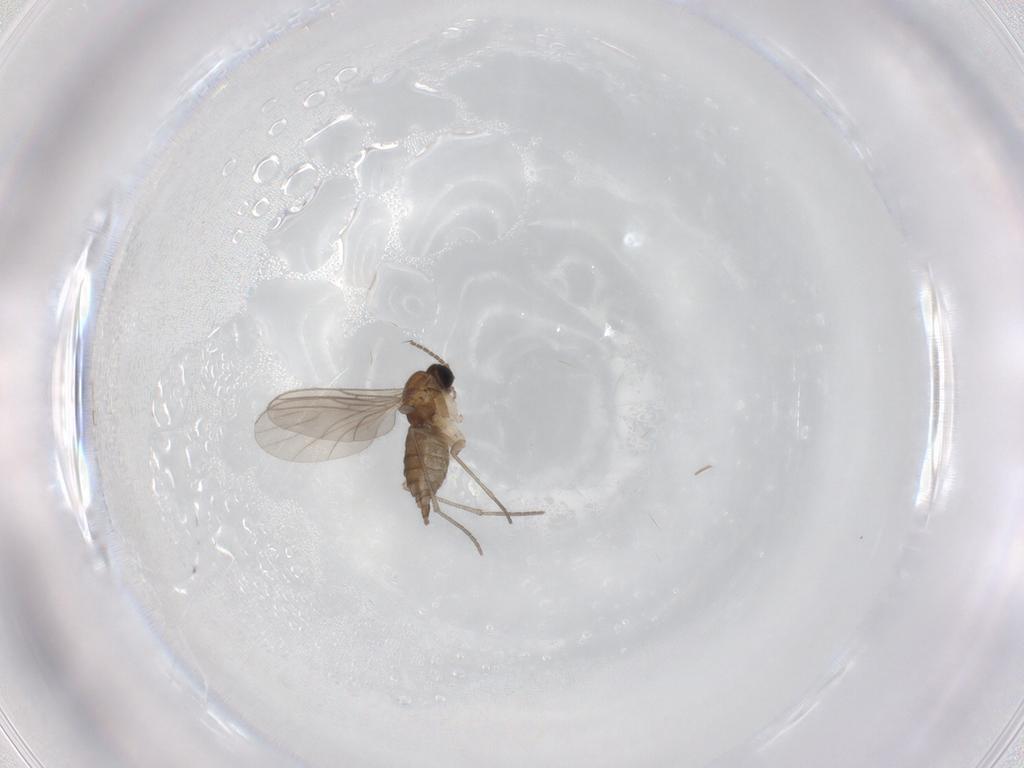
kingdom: Animalia
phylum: Arthropoda
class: Insecta
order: Diptera
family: Sciaridae
